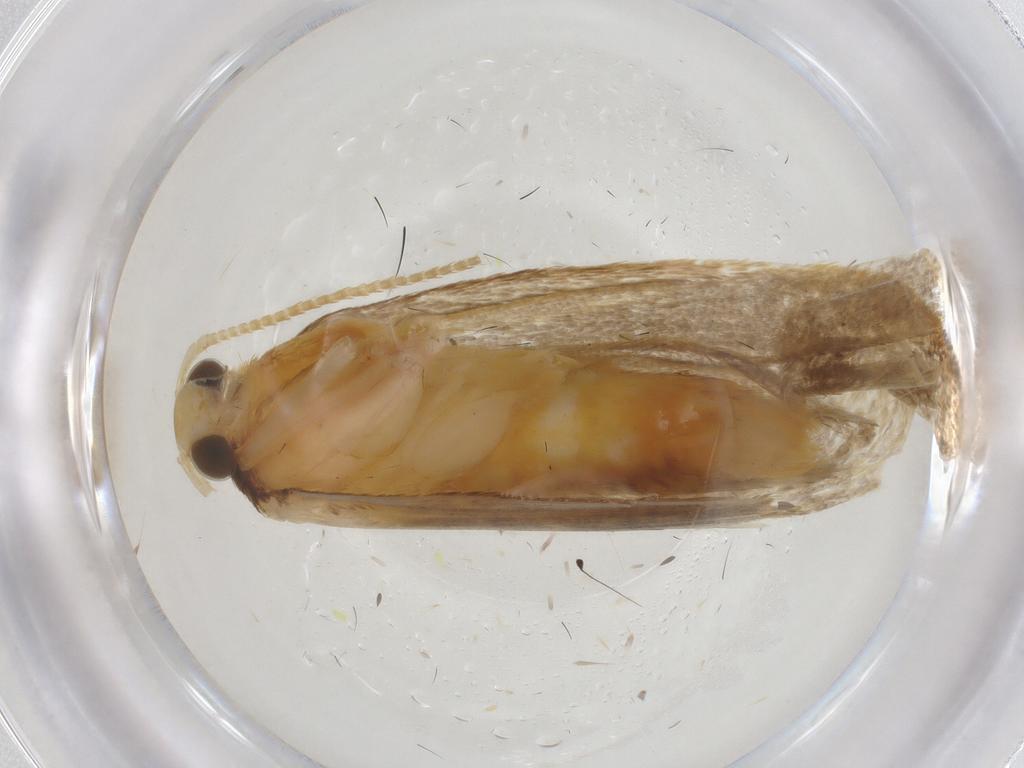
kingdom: Animalia
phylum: Arthropoda
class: Insecta
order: Lepidoptera
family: Lecithoceridae
